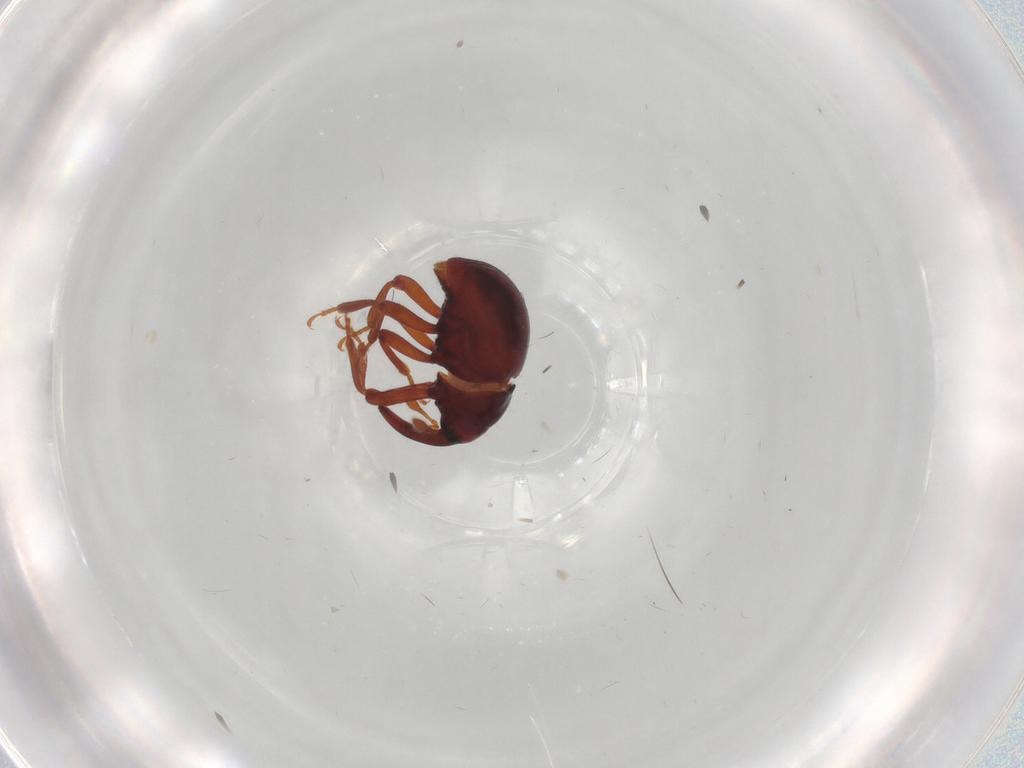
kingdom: Animalia
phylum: Arthropoda
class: Insecta
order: Coleoptera
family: Curculionidae
